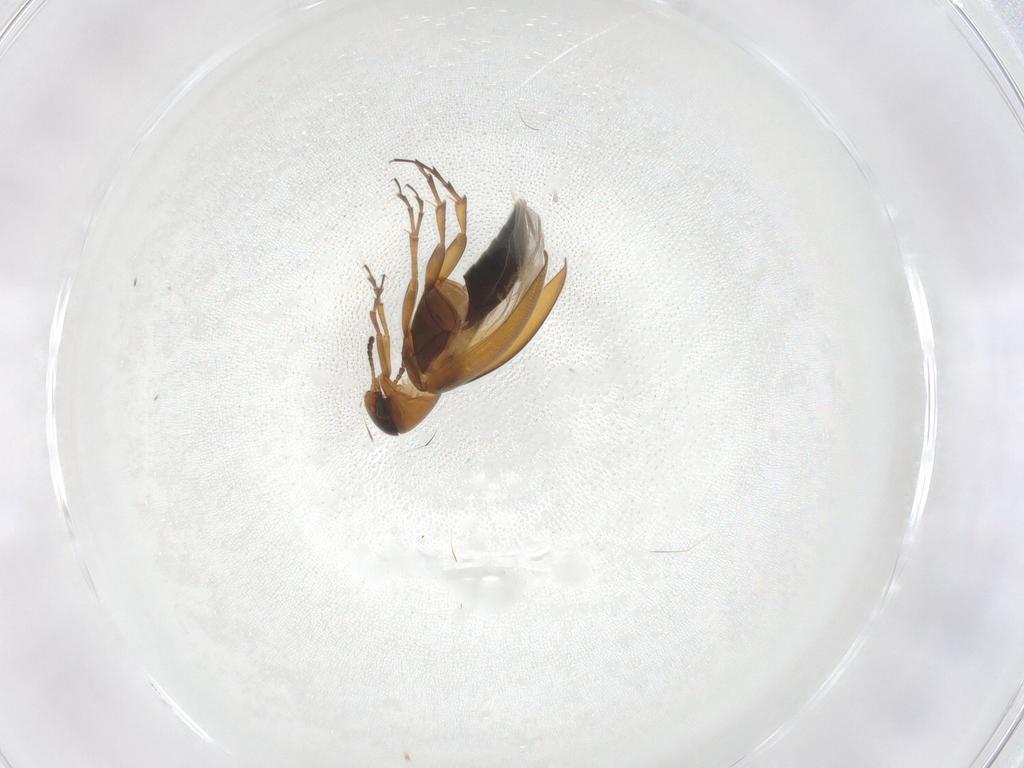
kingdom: Animalia
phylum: Arthropoda
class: Insecta
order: Coleoptera
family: Scraptiidae
